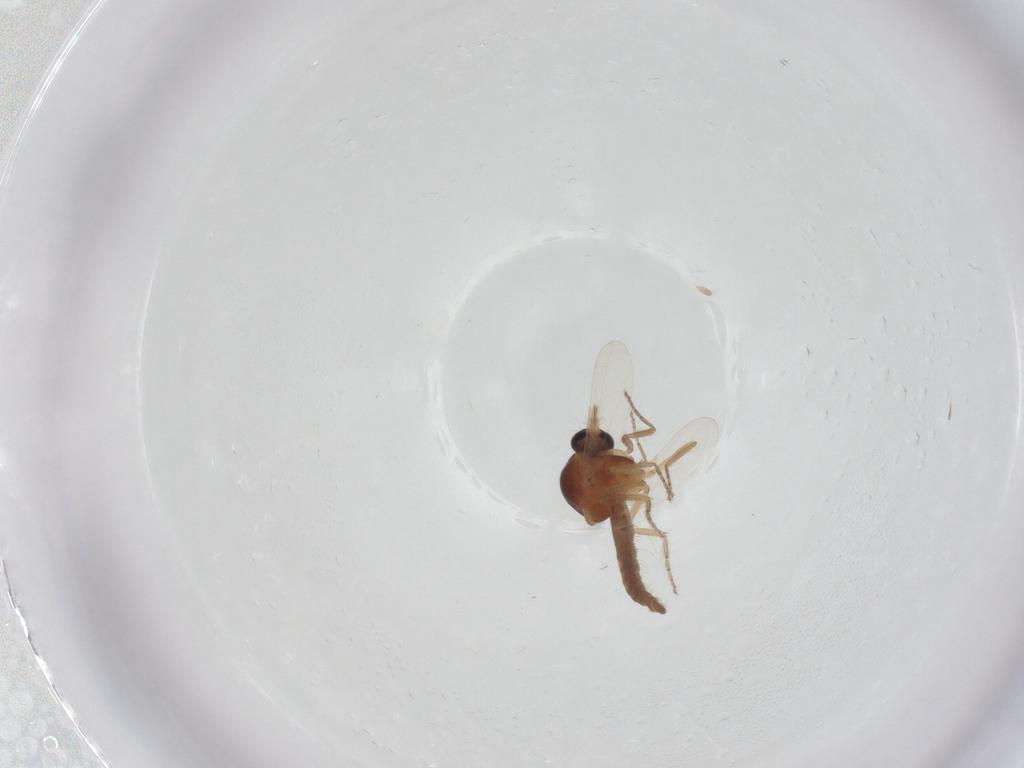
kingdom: Animalia
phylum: Arthropoda
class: Insecta
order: Diptera
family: Ceratopogonidae
